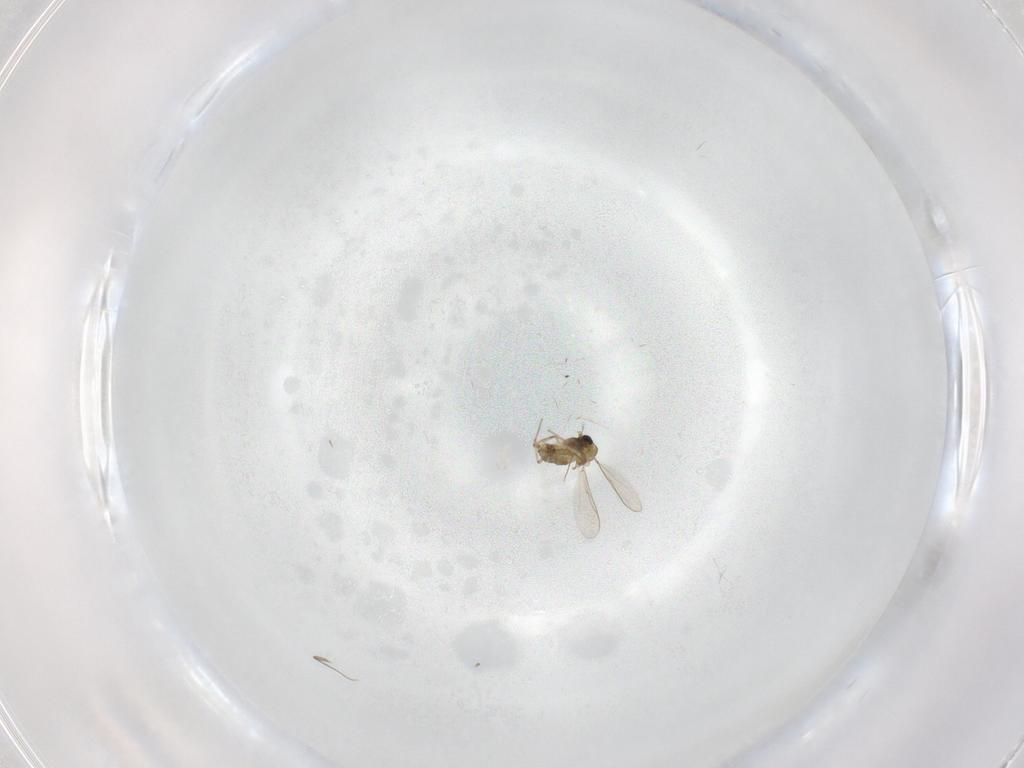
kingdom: Animalia
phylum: Arthropoda
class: Insecta
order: Diptera
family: Chironomidae
